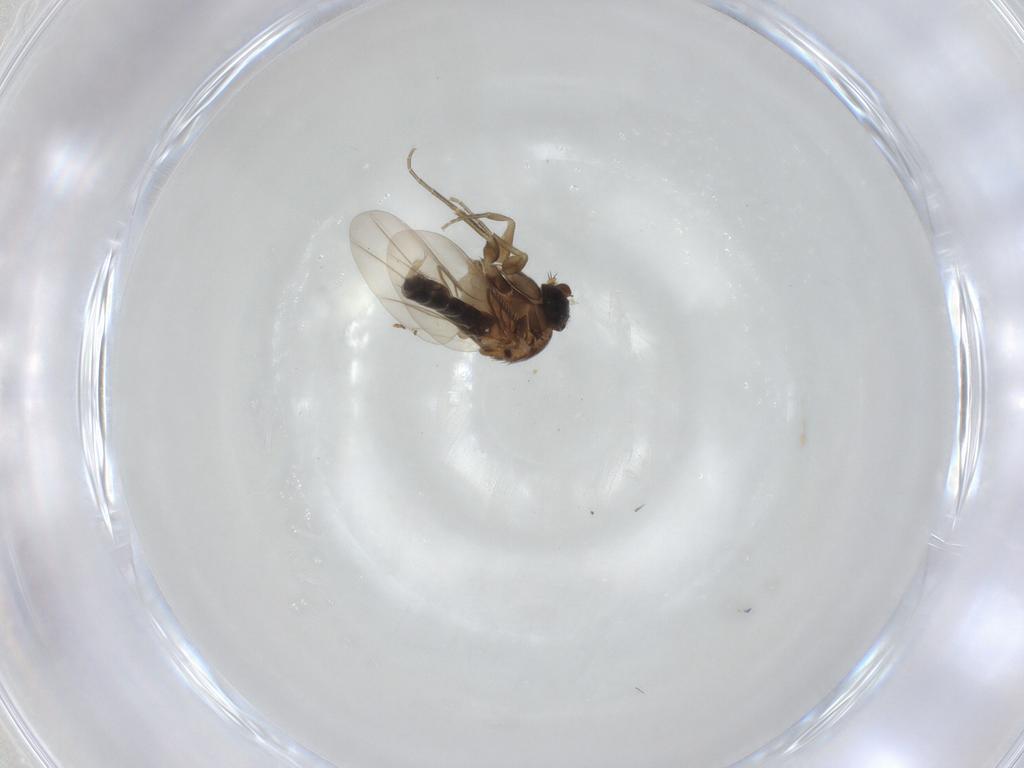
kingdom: Animalia
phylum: Arthropoda
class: Insecta
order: Diptera
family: Phoridae
